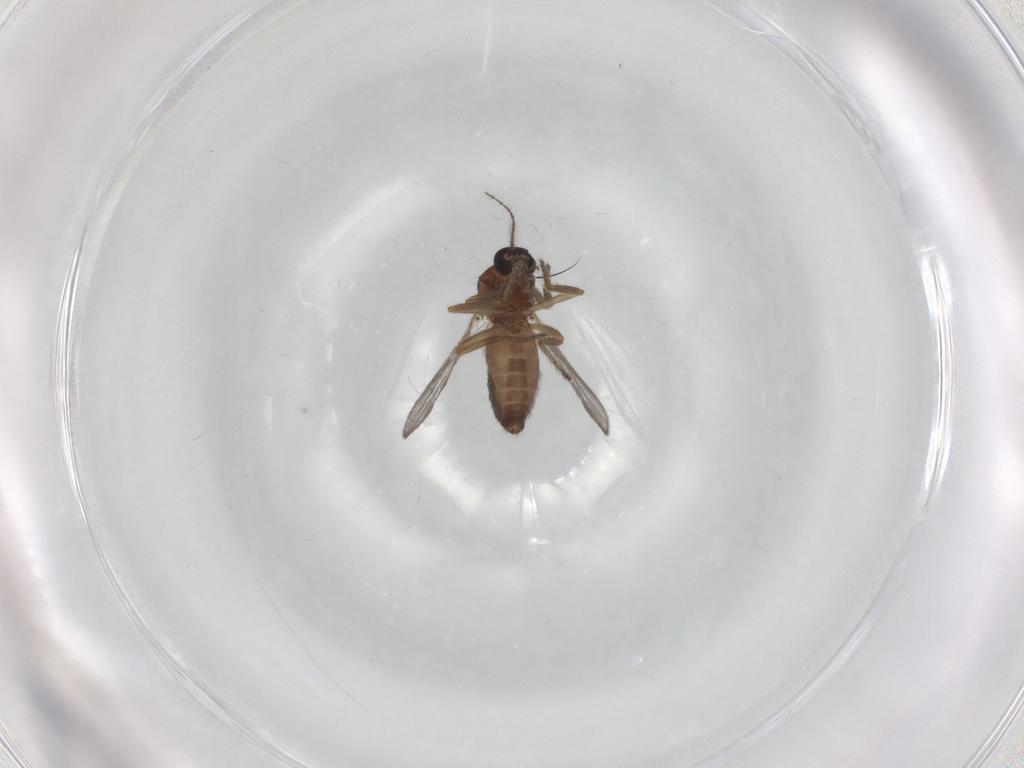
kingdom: Animalia
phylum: Arthropoda
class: Insecta
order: Diptera
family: Ceratopogonidae
